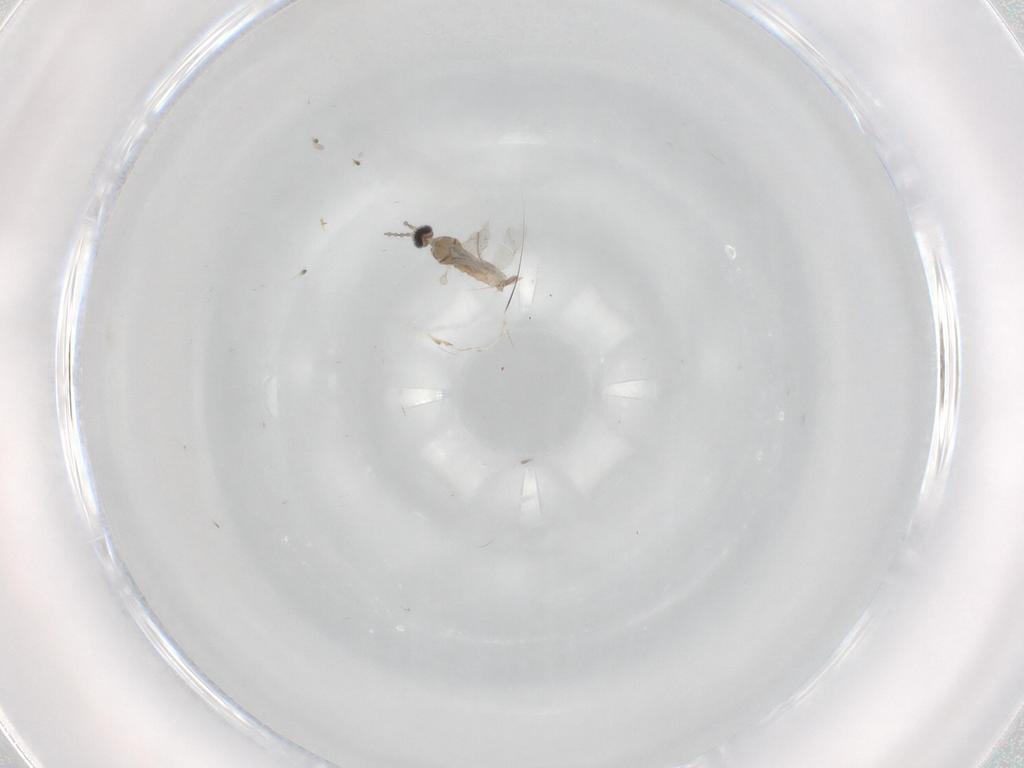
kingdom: Animalia
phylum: Arthropoda
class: Insecta
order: Diptera
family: Cecidomyiidae
